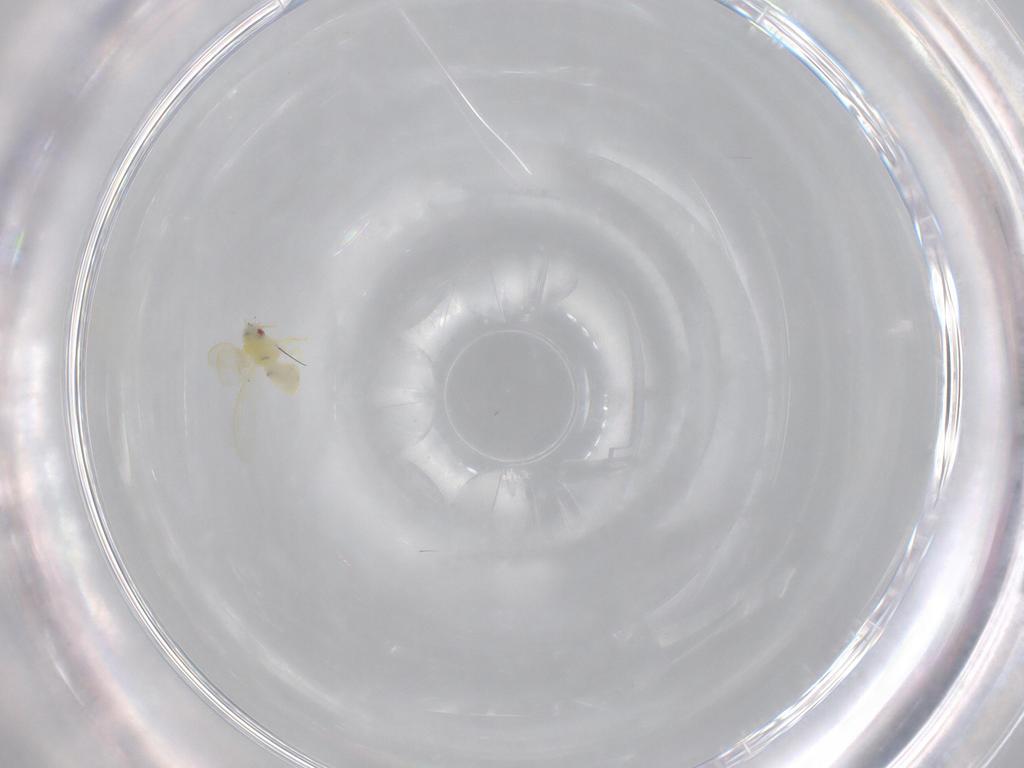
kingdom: Animalia
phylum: Arthropoda
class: Insecta
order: Hemiptera
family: Aleyrodidae
